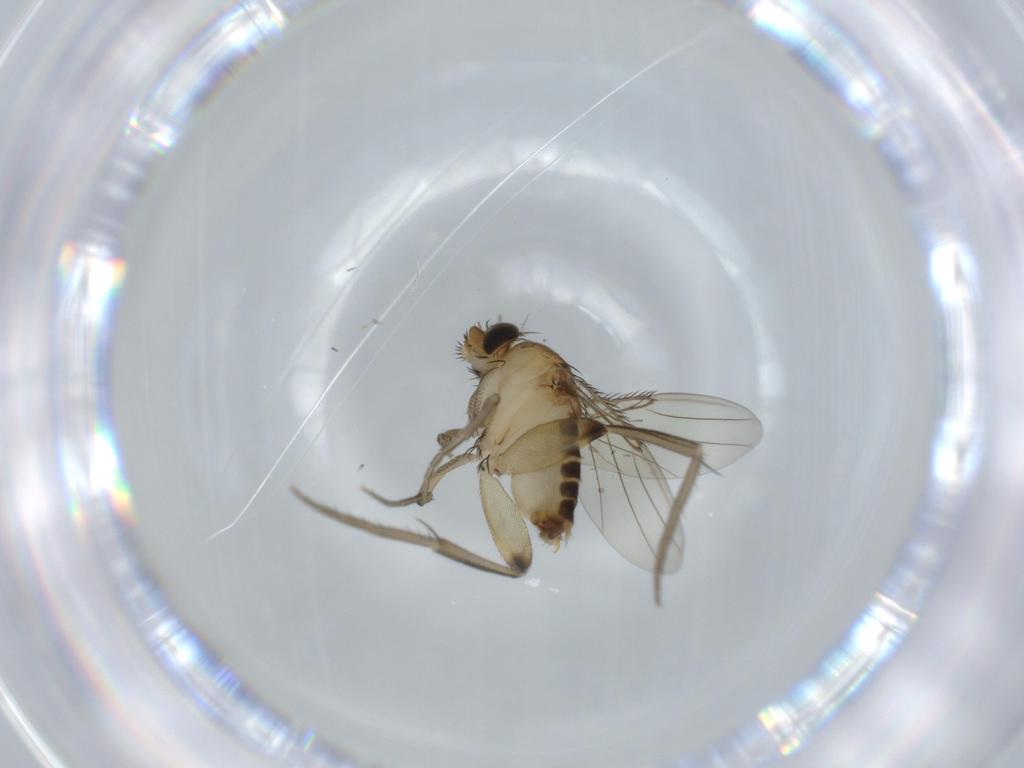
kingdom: Animalia
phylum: Arthropoda
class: Insecta
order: Diptera
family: Phoridae
